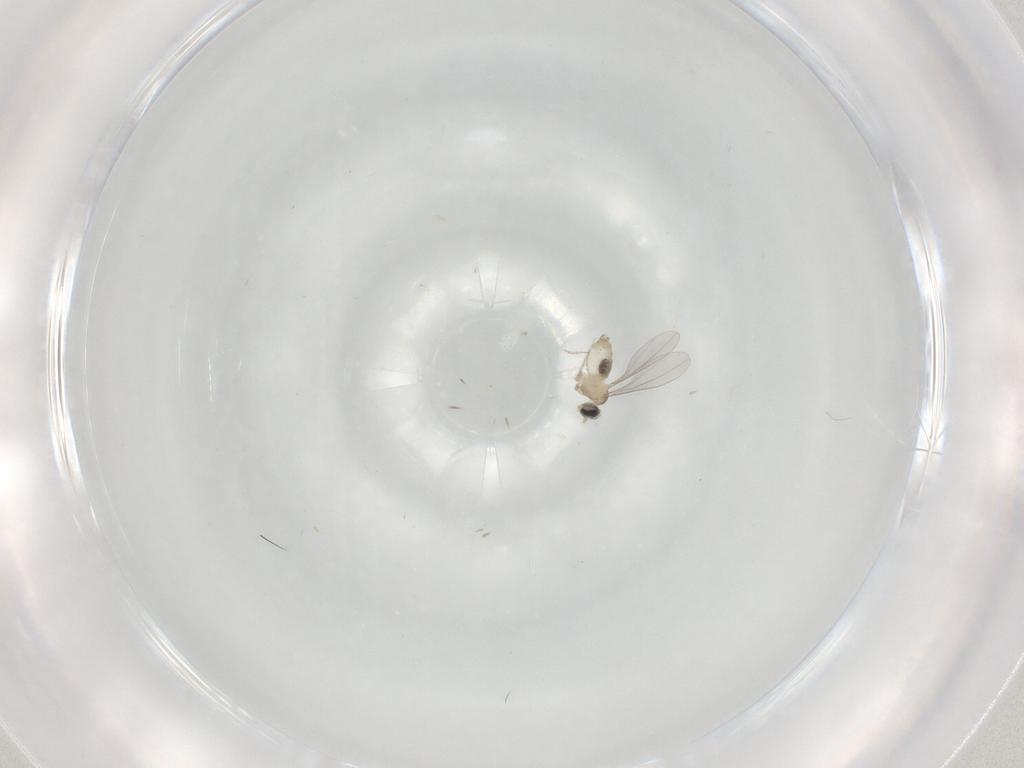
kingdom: Animalia
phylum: Arthropoda
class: Insecta
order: Diptera
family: Cecidomyiidae
